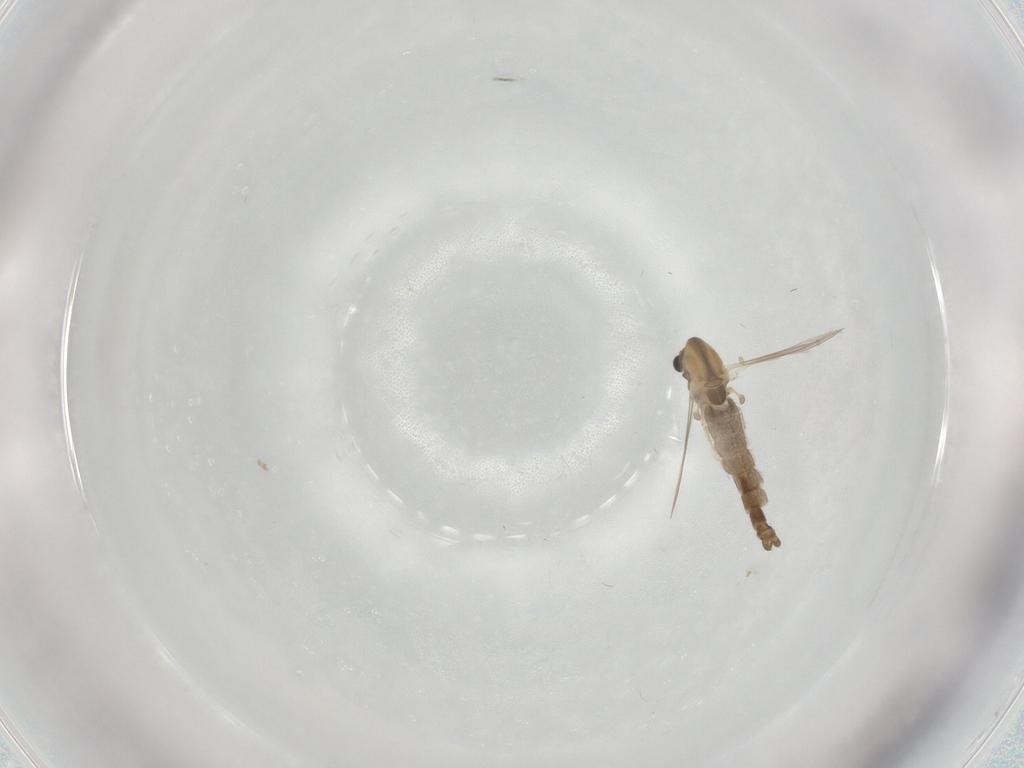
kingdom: Animalia
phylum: Arthropoda
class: Insecta
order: Diptera
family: Chironomidae
